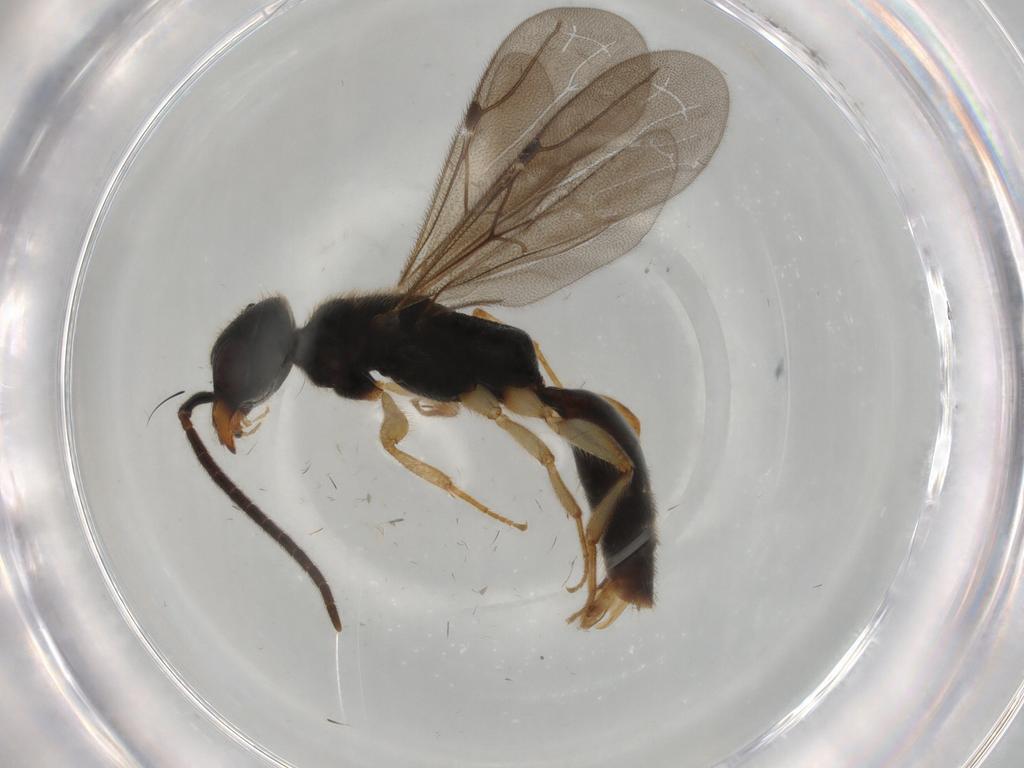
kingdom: Animalia
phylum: Arthropoda
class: Insecta
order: Hymenoptera
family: Bethylidae
